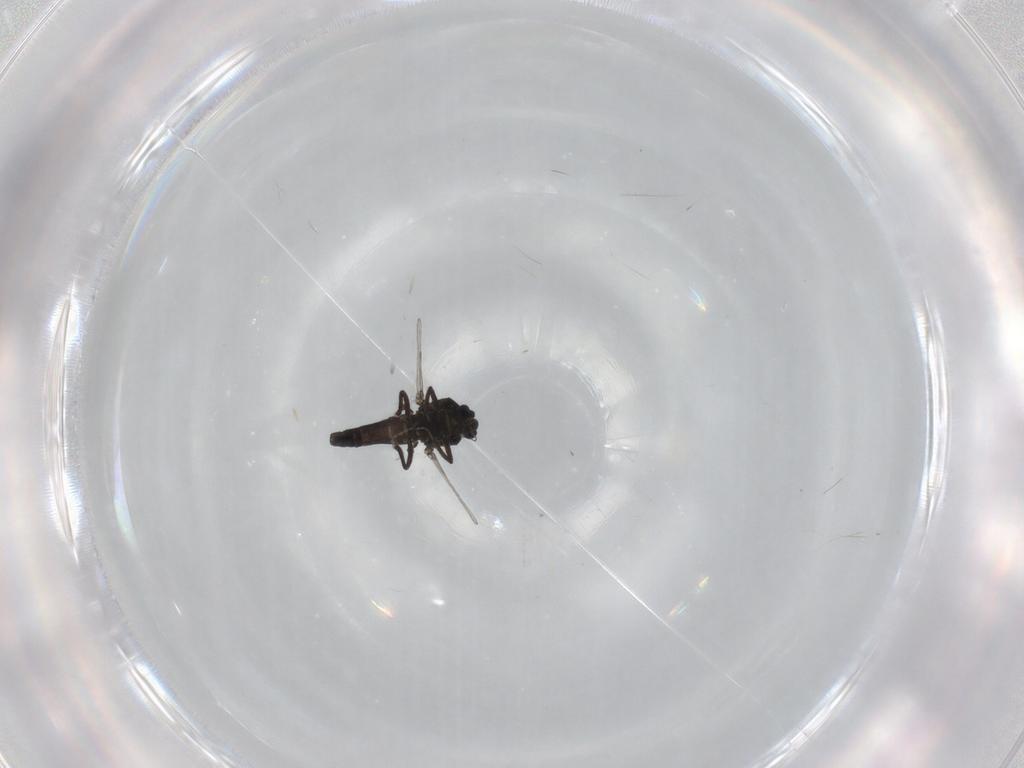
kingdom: Animalia
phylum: Arthropoda
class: Insecta
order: Diptera
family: Ceratopogonidae
